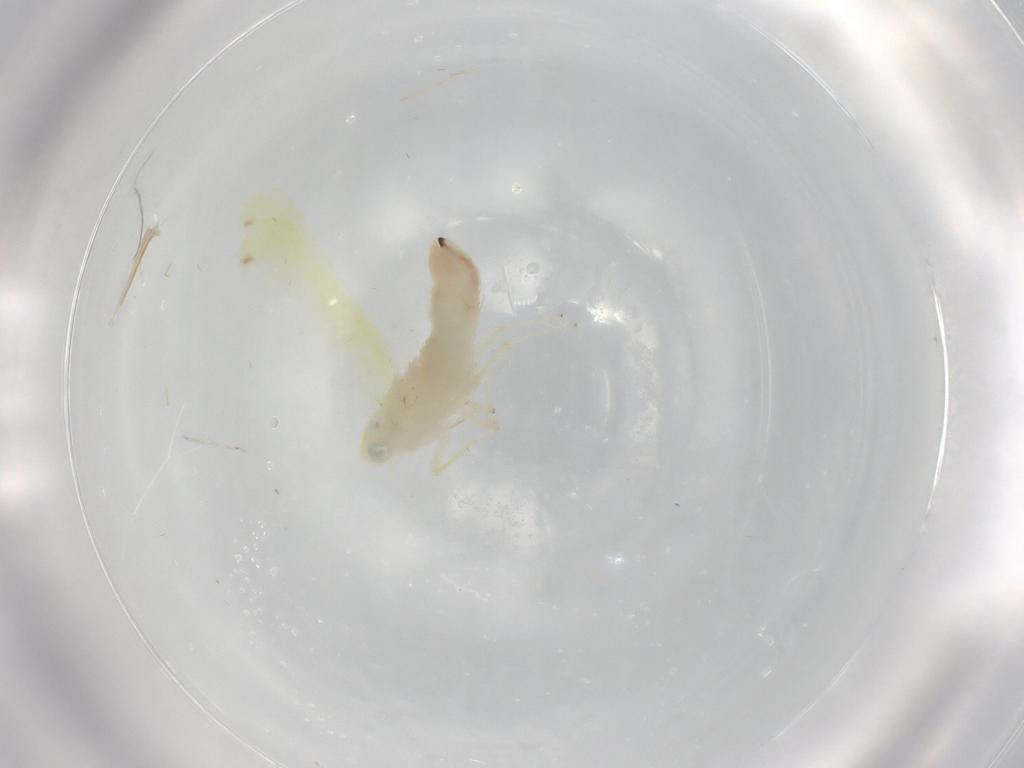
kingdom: Animalia
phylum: Arthropoda
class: Insecta
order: Hemiptera
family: Cicadellidae
